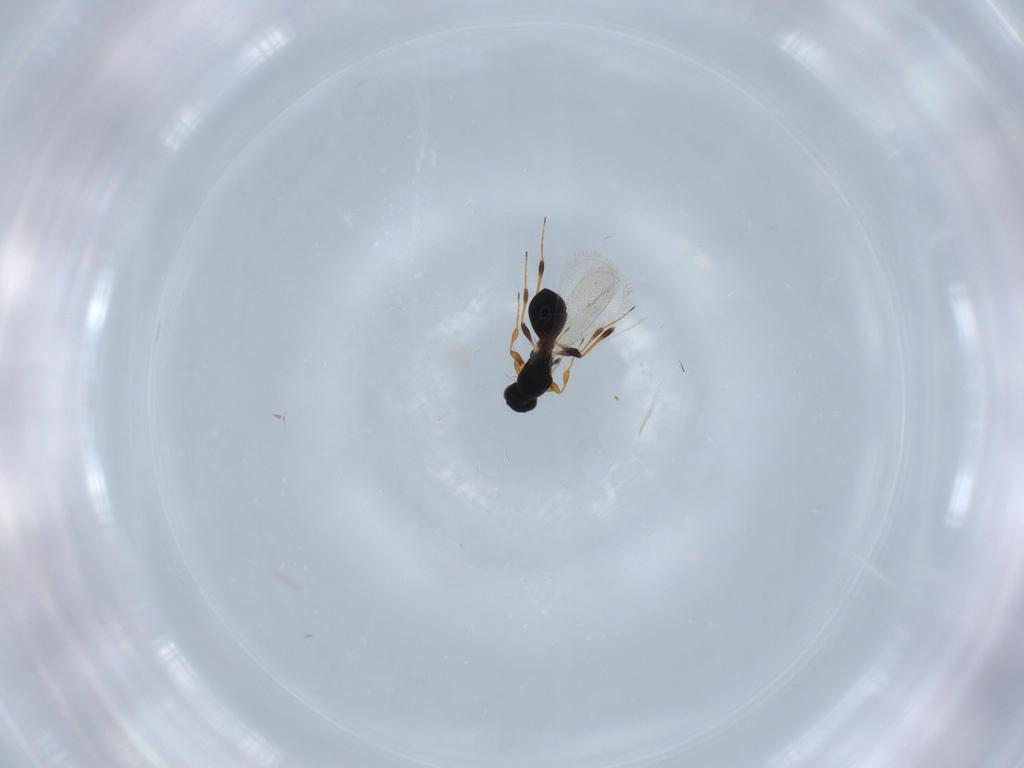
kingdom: Animalia
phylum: Arthropoda
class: Insecta
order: Hymenoptera
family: Platygastridae
